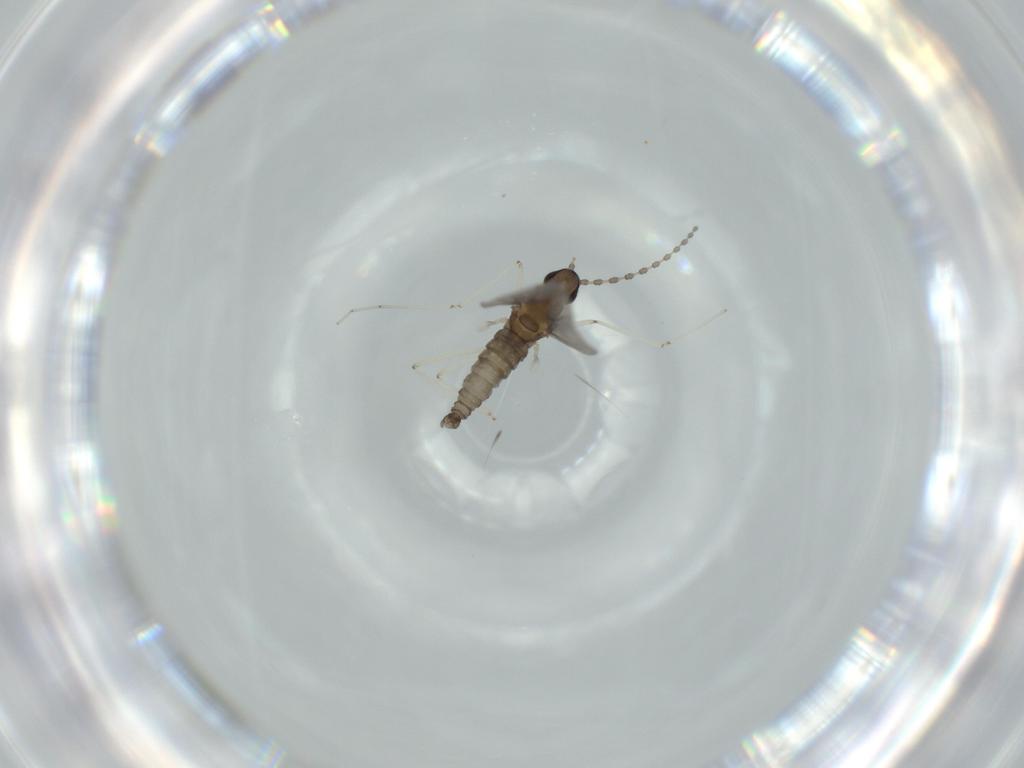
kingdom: Animalia
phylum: Arthropoda
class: Insecta
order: Diptera
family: Cecidomyiidae
